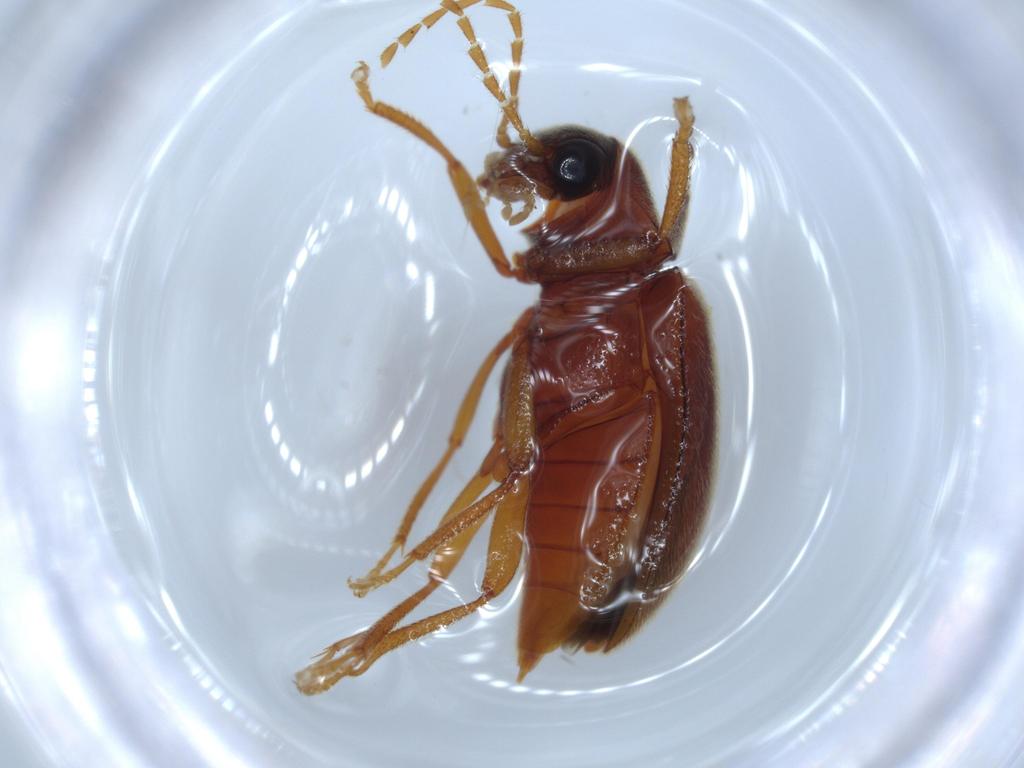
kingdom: Animalia
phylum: Arthropoda
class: Insecta
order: Coleoptera
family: Ptilodactylidae
